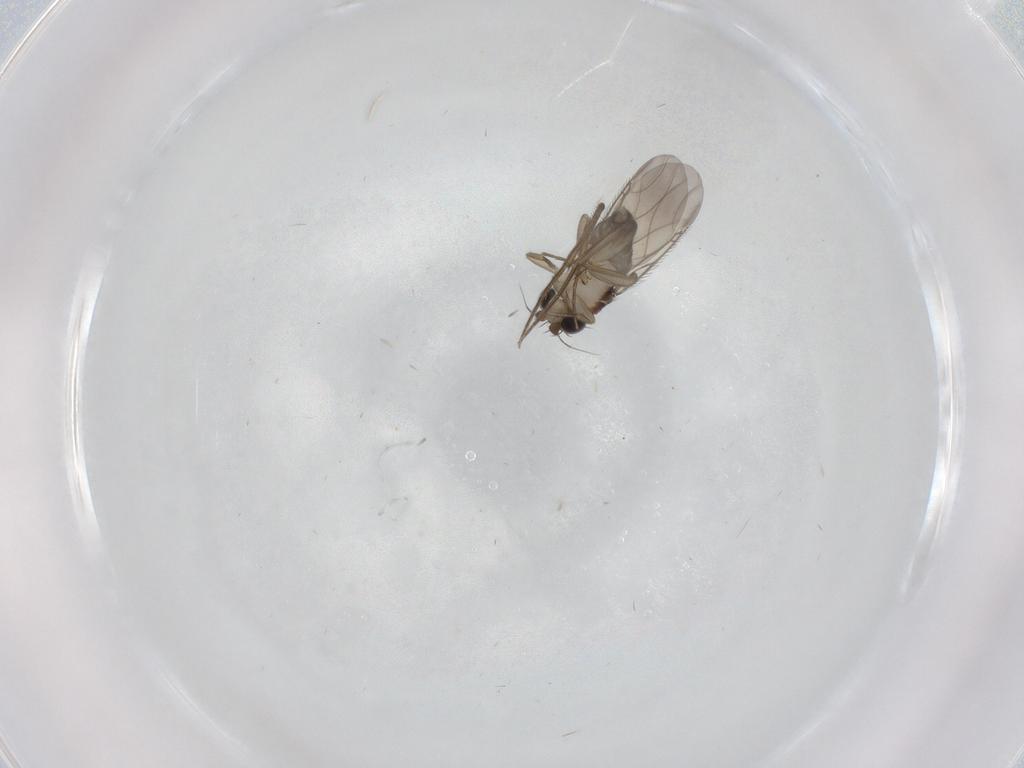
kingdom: Animalia
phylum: Arthropoda
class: Insecta
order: Diptera
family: Phoridae
